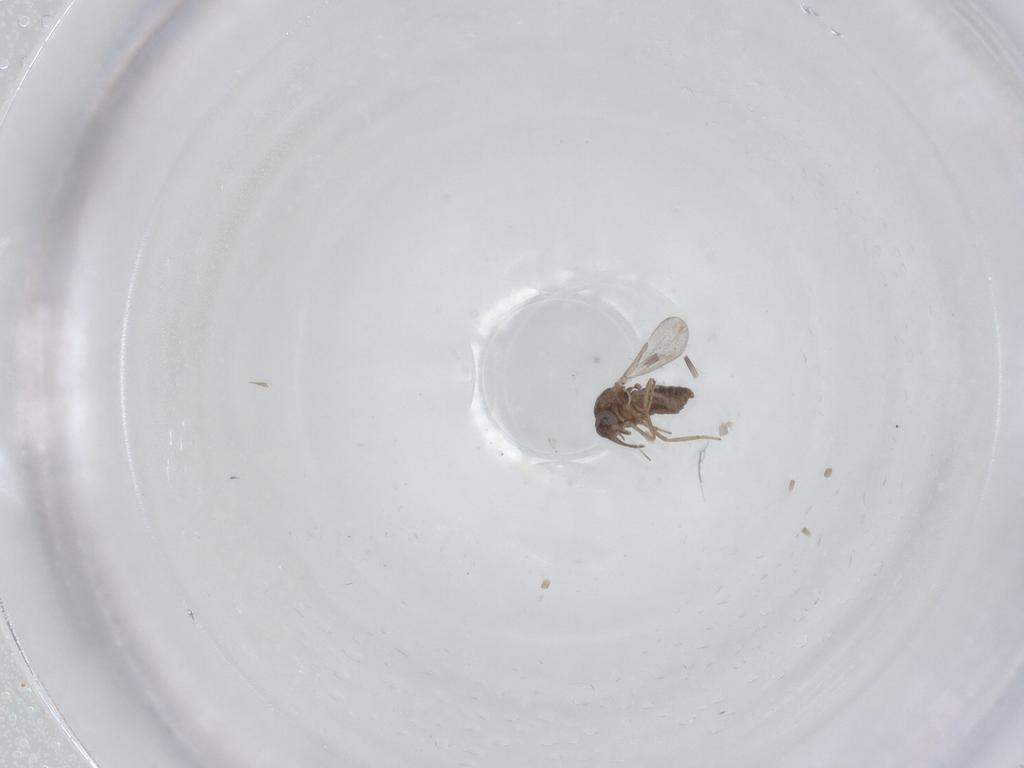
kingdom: Animalia
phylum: Arthropoda
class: Insecta
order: Diptera
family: Ceratopogonidae
